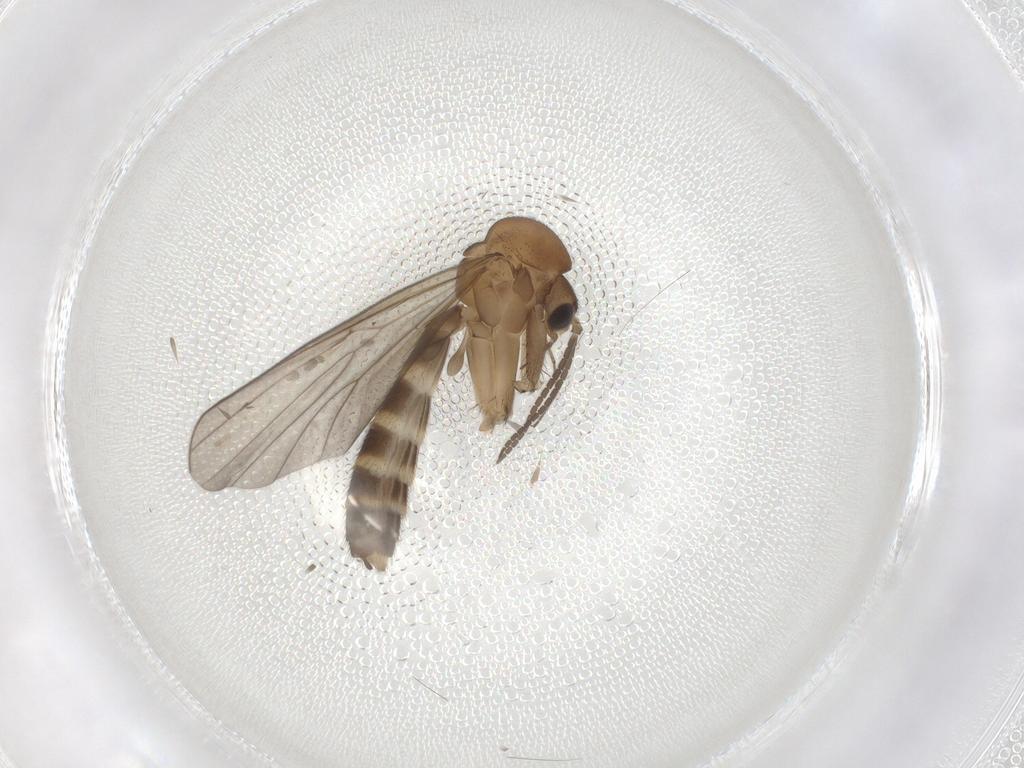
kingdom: Animalia
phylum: Arthropoda
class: Insecta
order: Diptera
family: Mycetophilidae
